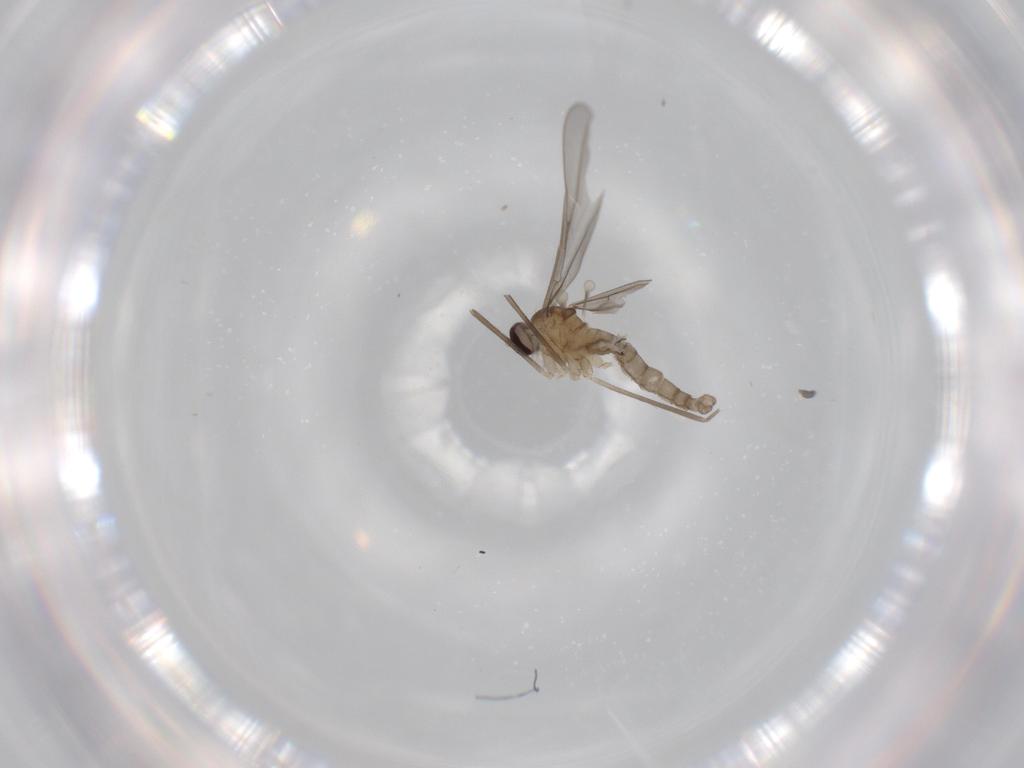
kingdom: Animalia
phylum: Arthropoda
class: Insecta
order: Diptera
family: Cecidomyiidae
